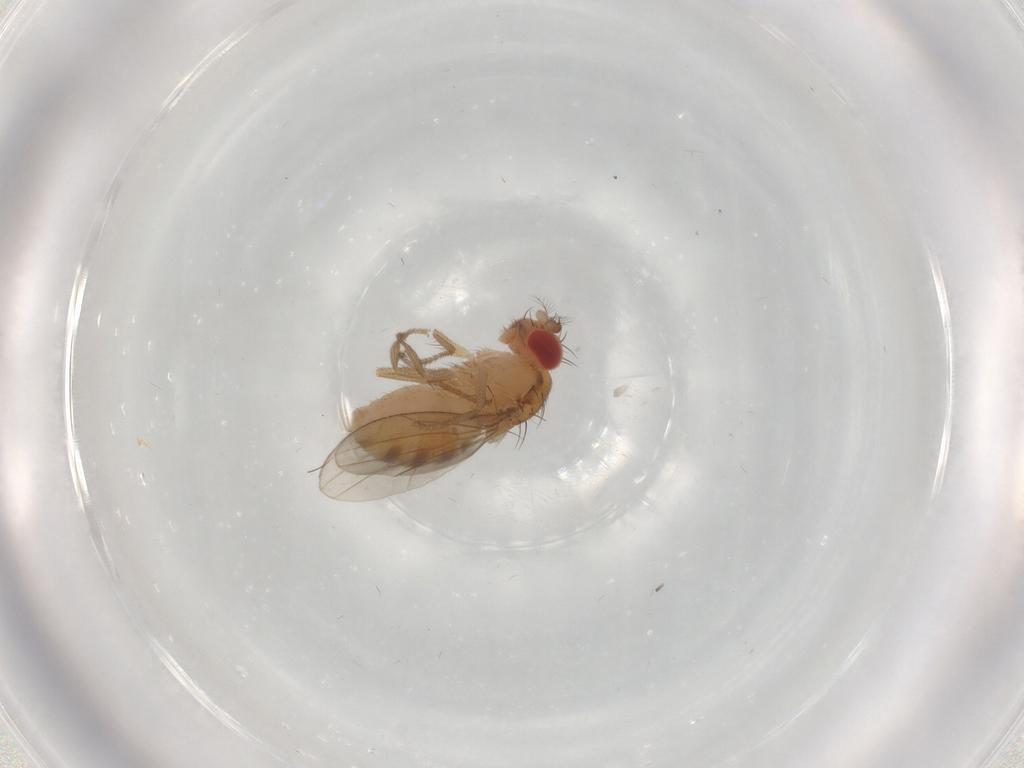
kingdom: Animalia
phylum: Arthropoda
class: Insecta
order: Diptera
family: Drosophilidae
